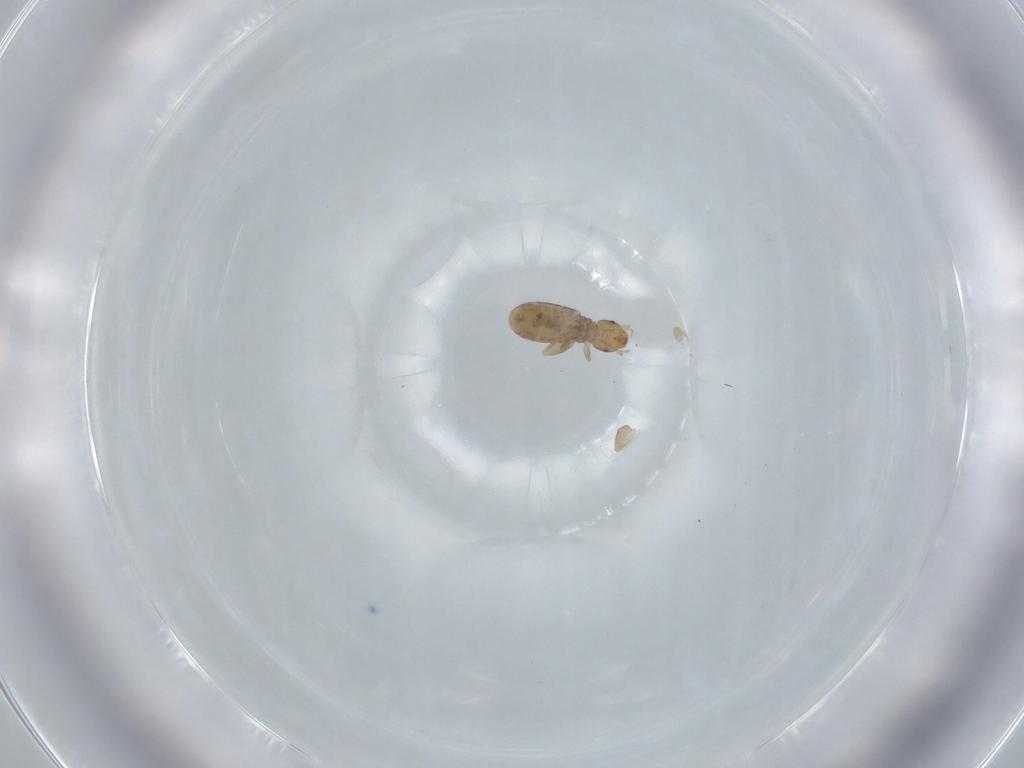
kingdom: Animalia
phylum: Arthropoda
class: Insecta
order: Psocodea
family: Liposcelididae
